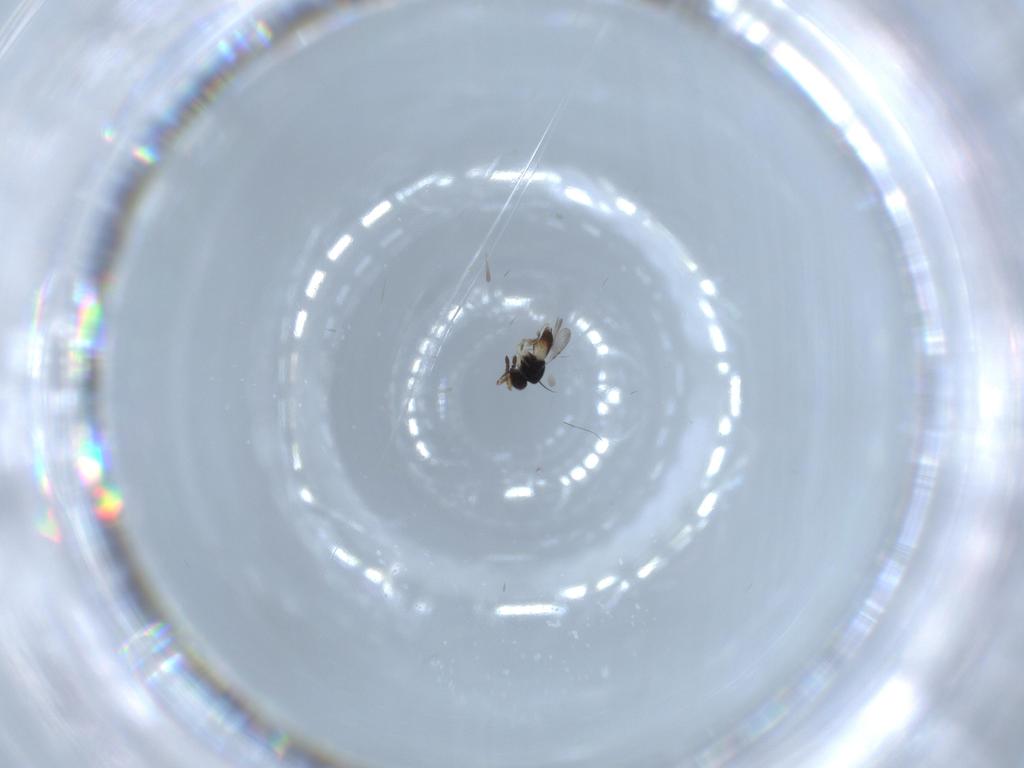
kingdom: Animalia
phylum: Arthropoda
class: Insecta
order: Hymenoptera
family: Ceraphronidae
